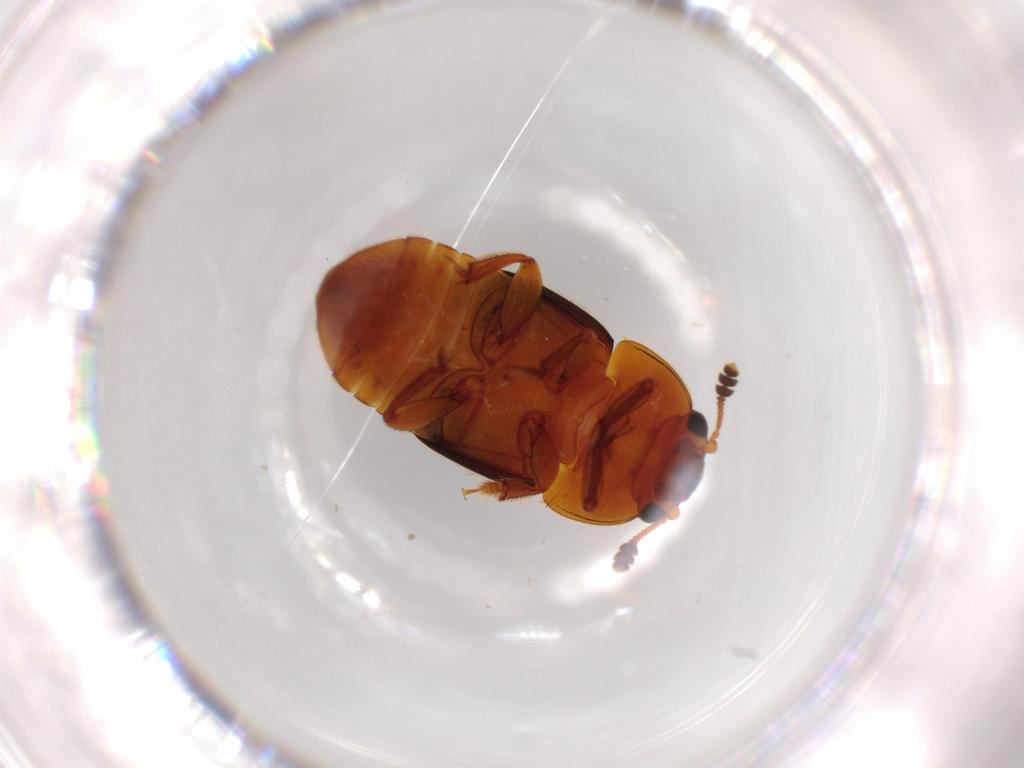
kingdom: Animalia
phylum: Arthropoda
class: Insecta
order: Coleoptera
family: Nitidulidae
